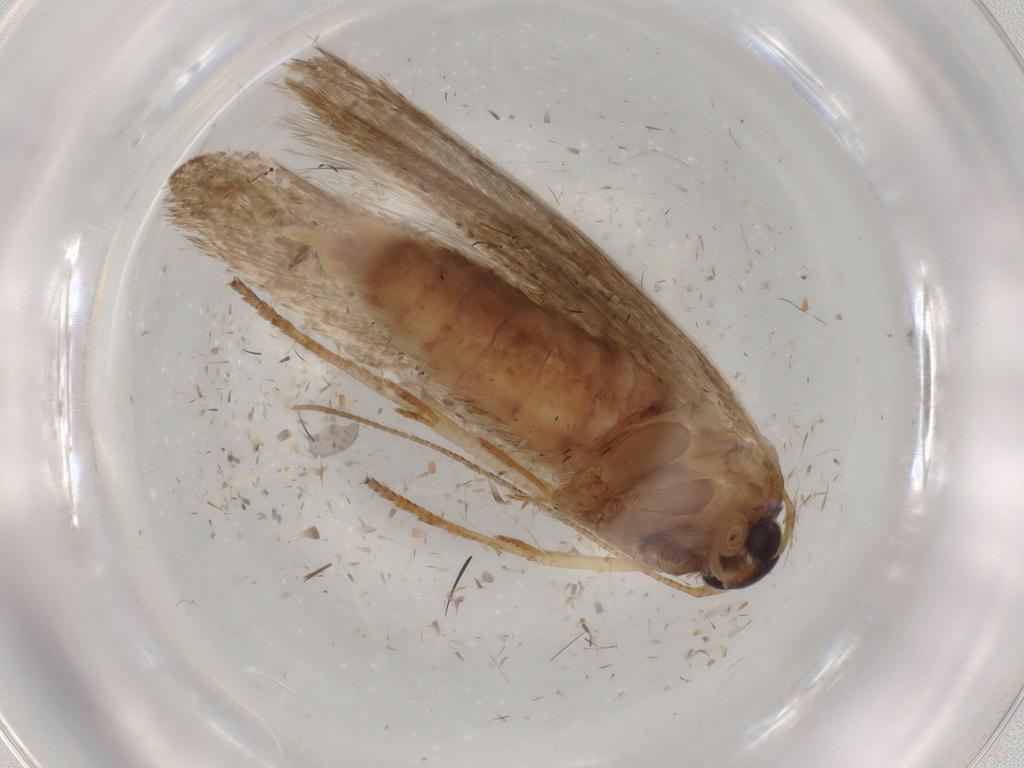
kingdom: Animalia
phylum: Arthropoda
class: Insecta
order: Lepidoptera
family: Blastobasidae
